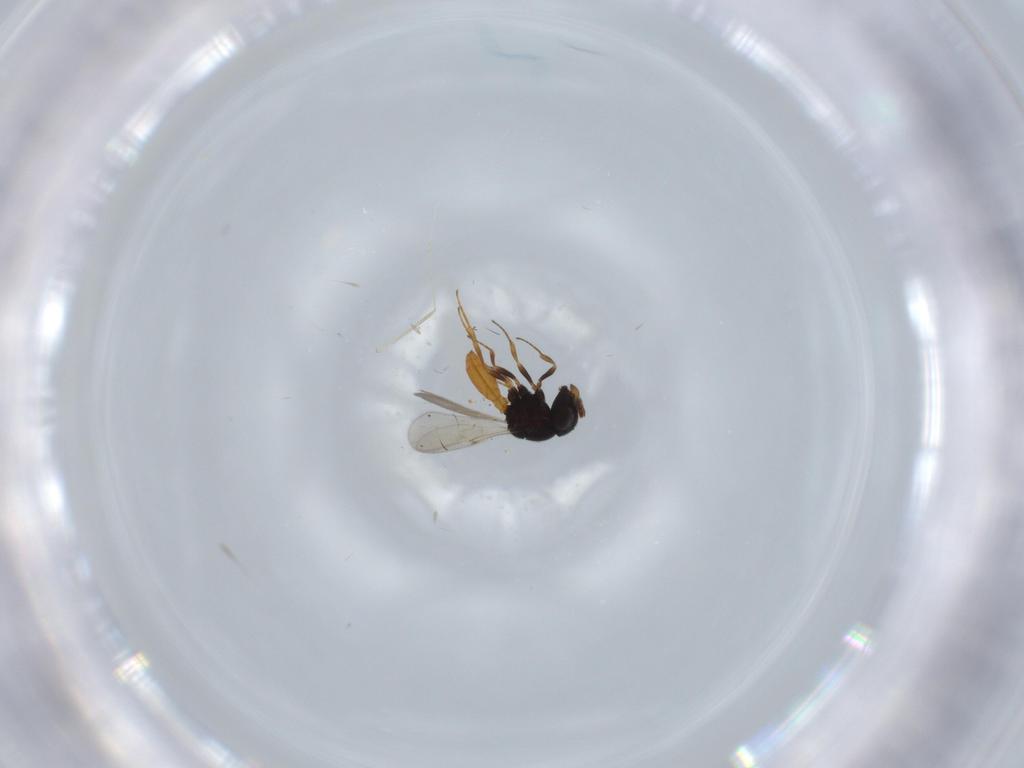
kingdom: Animalia
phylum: Arthropoda
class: Insecta
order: Hymenoptera
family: Scelionidae
